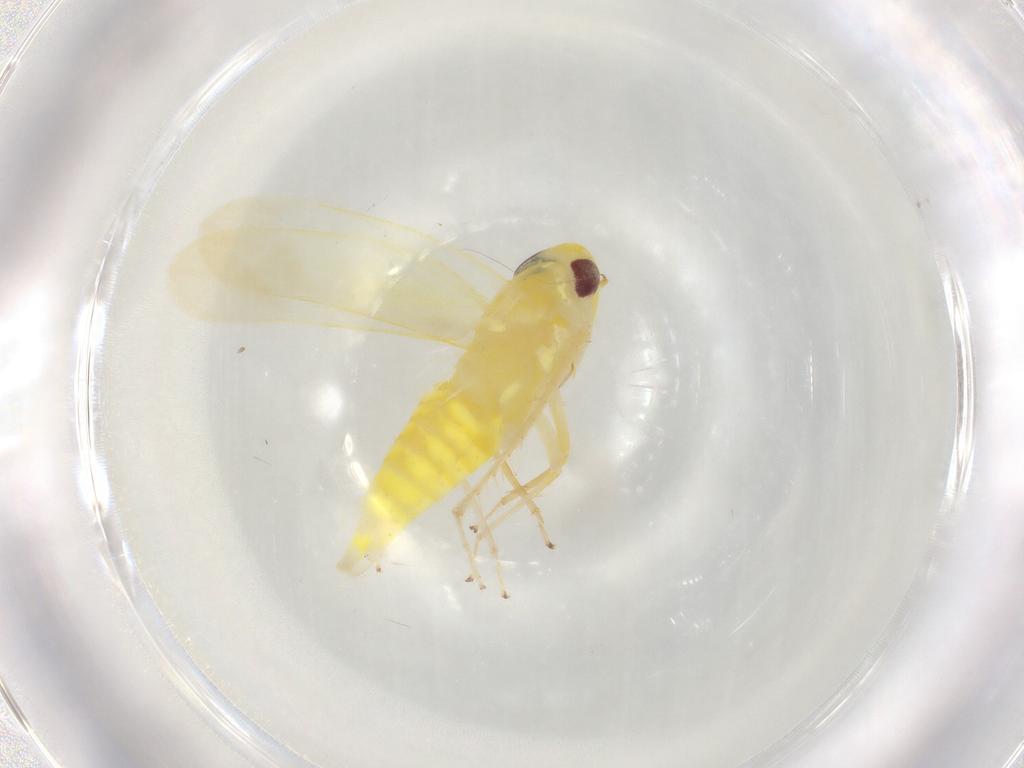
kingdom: Animalia
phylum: Arthropoda
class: Insecta
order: Hemiptera
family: Cicadellidae
